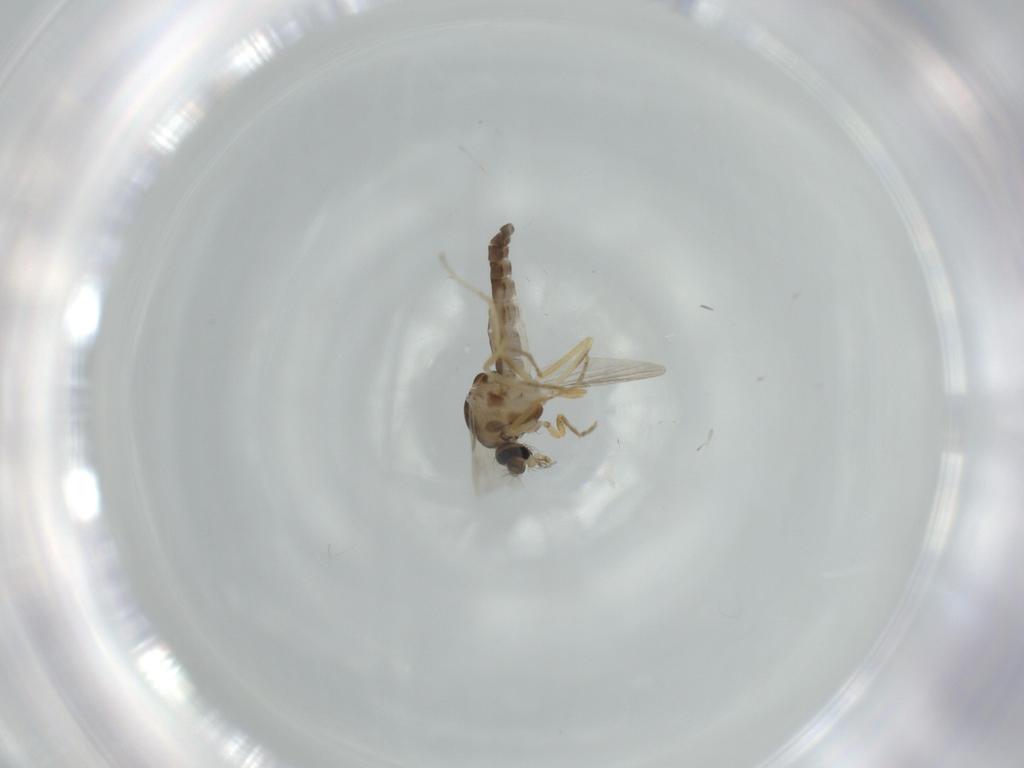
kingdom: Animalia
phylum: Arthropoda
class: Insecta
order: Diptera
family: Ceratopogonidae
